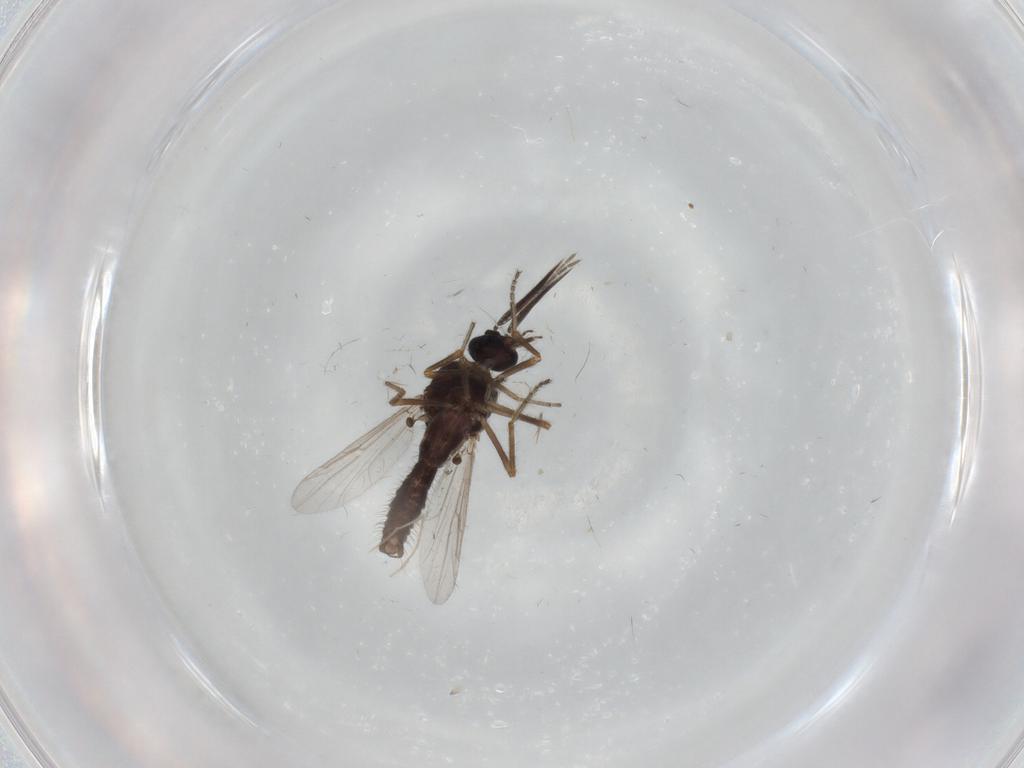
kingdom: Animalia
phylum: Arthropoda
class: Insecta
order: Diptera
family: Ceratopogonidae
